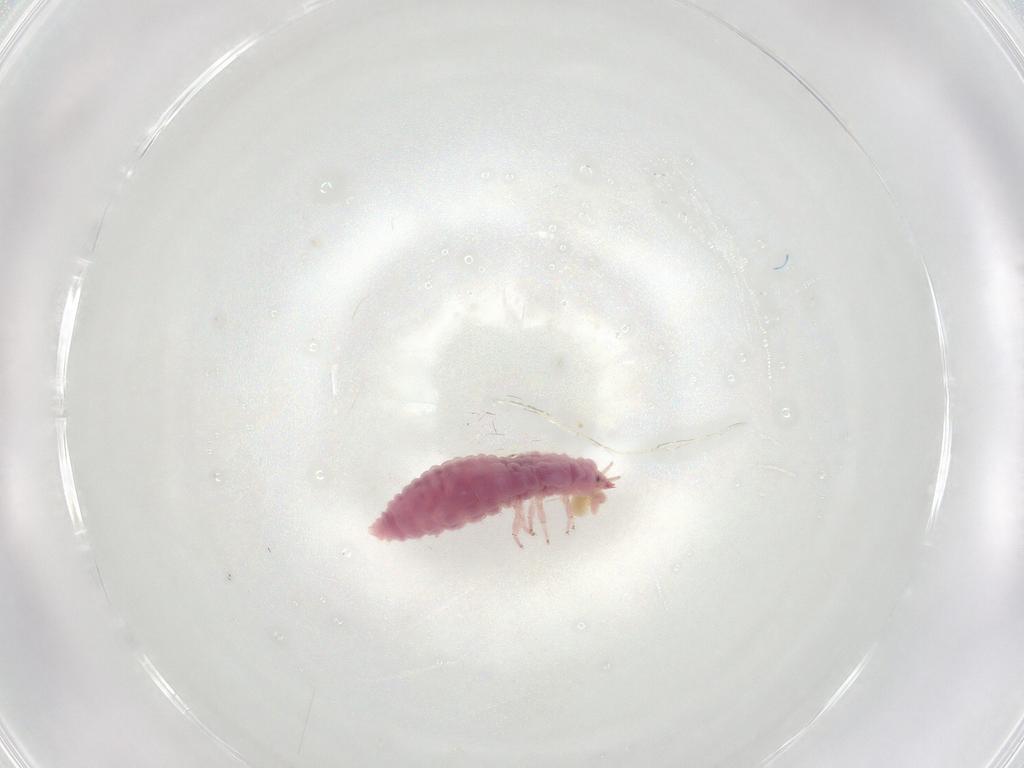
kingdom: Animalia
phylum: Arthropoda
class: Insecta
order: Neuroptera
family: Coniopterygidae
